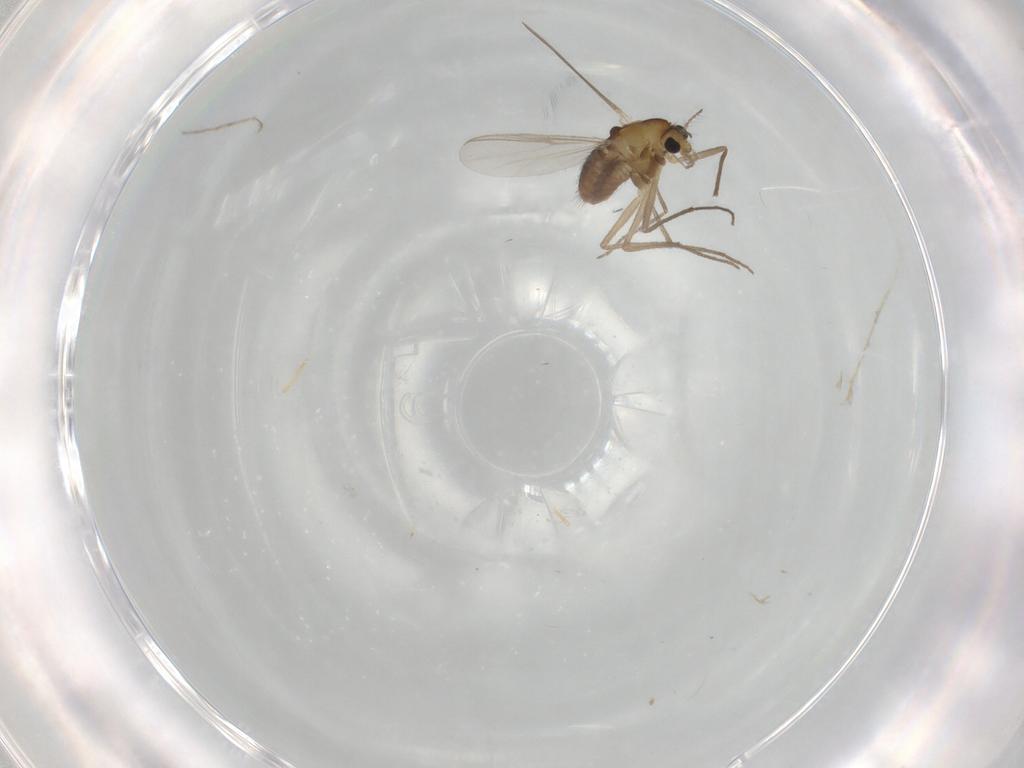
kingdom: Animalia
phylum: Arthropoda
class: Insecta
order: Diptera
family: Chironomidae
